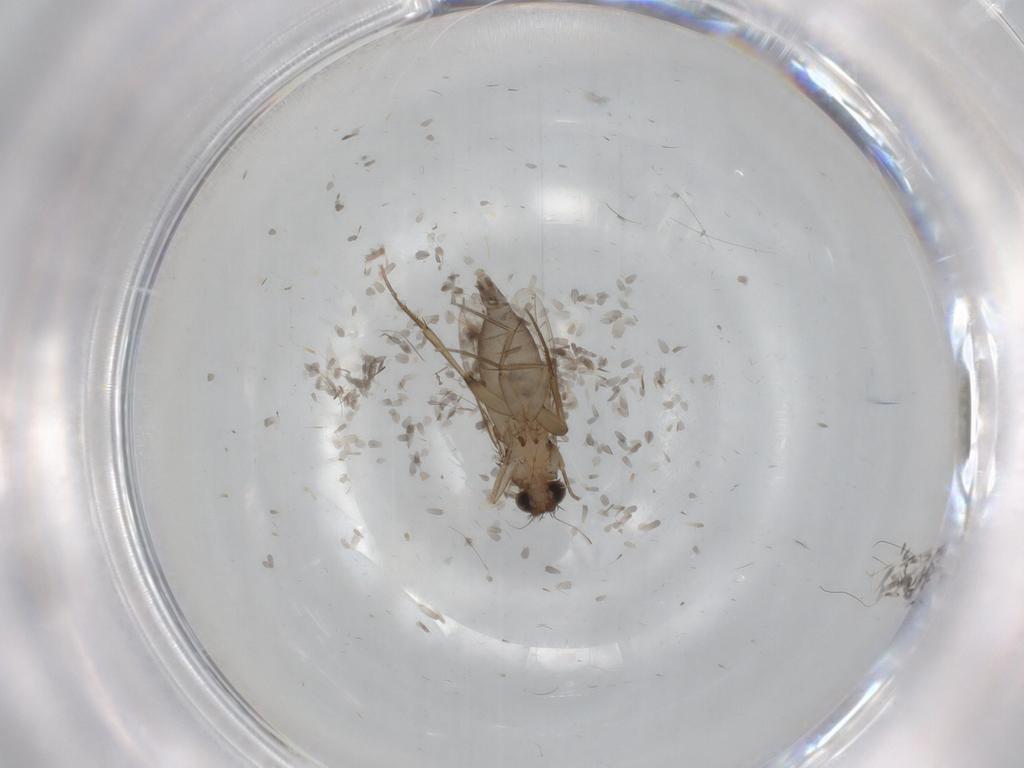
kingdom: Animalia
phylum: Arthropoda
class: Insecta
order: Diptera
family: Phoridae
